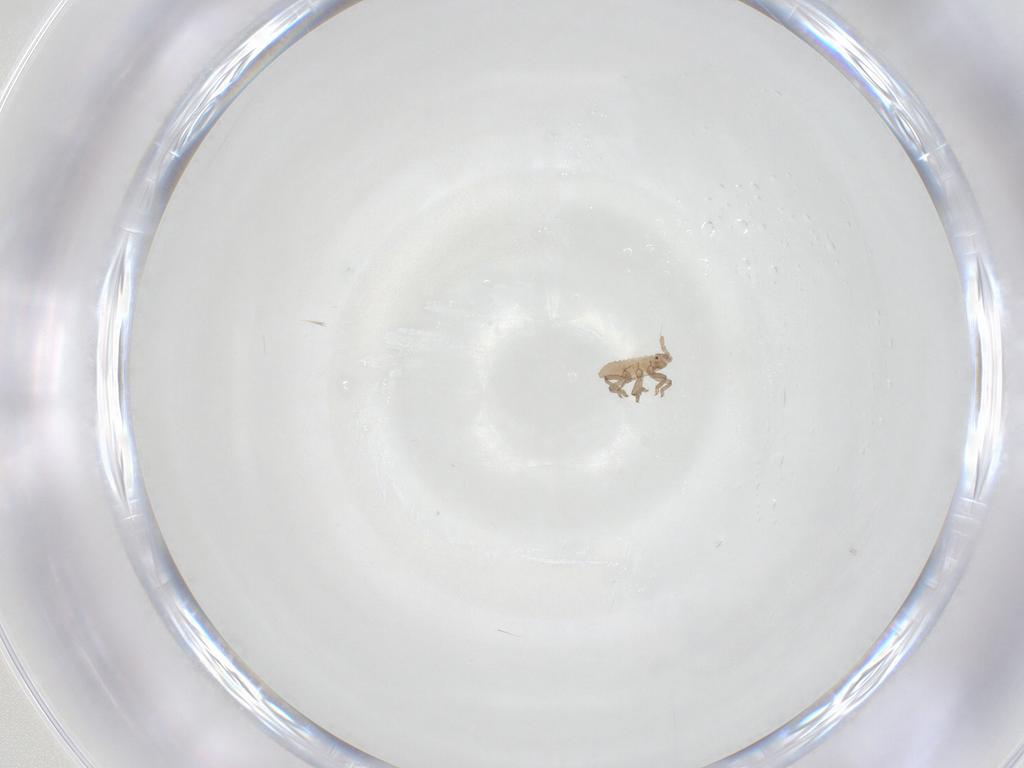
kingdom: Animalia
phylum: Arthropoda
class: Insecta
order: Hemiptera
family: Aphididae
